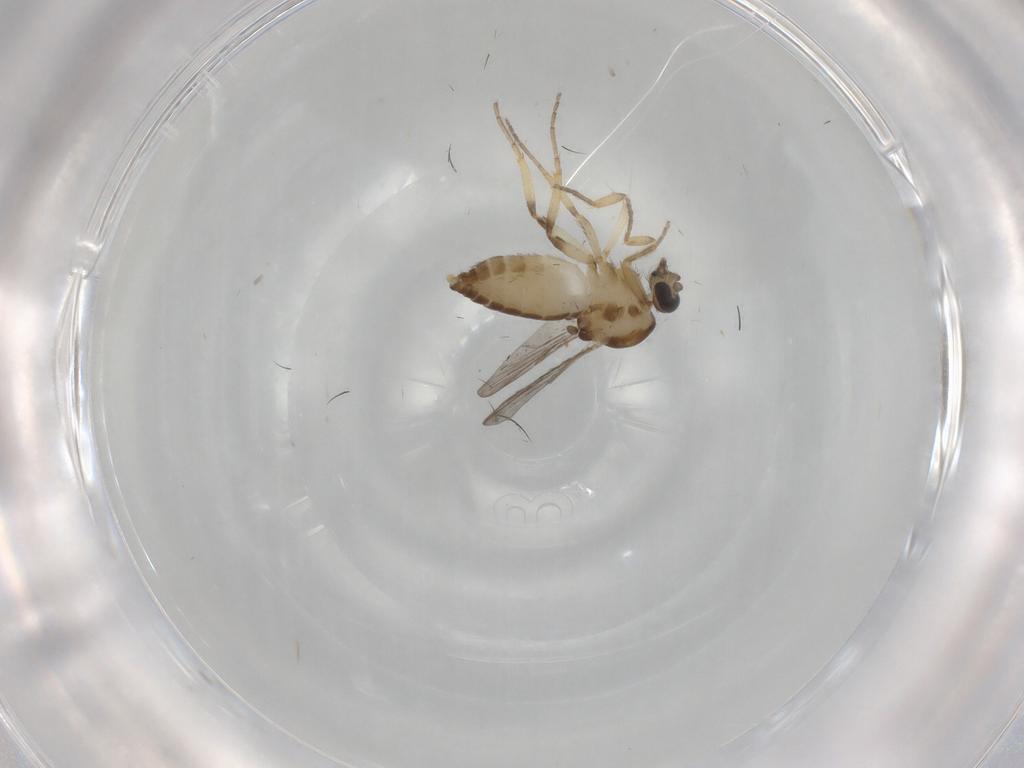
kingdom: Animalia
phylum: Arthropoda
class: Insecta
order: Diptera
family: Ceratopogonidae
